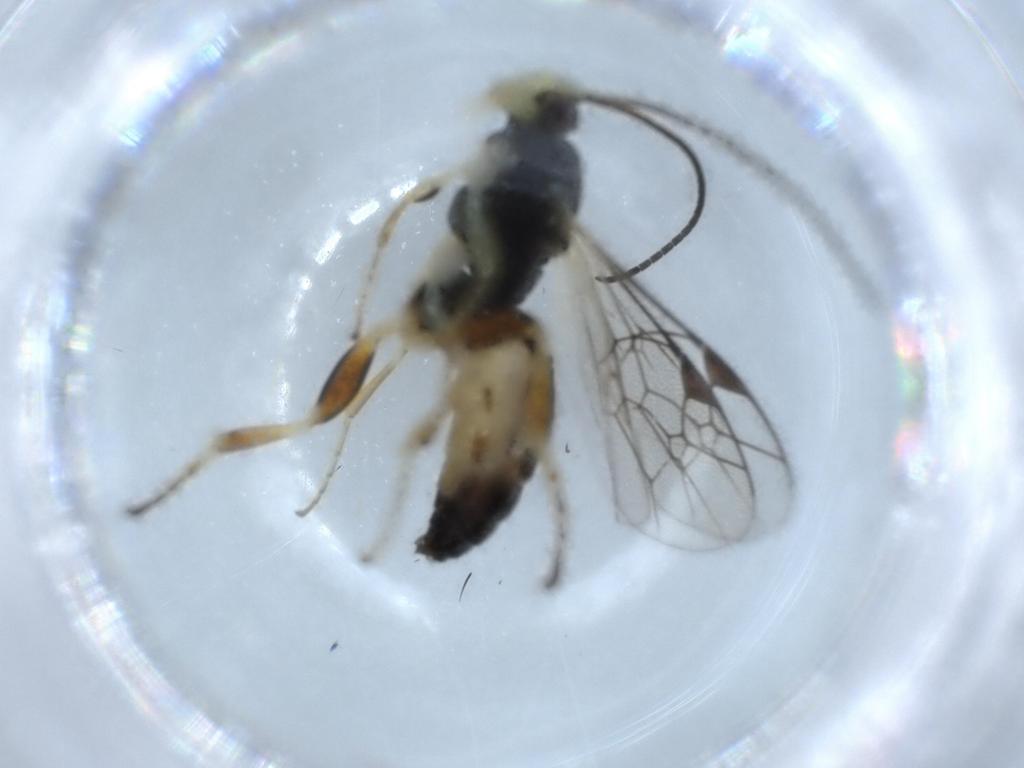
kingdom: Animalia
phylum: Arthropoda
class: Insecta
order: Hymenoptera
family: Ichneumonidae
